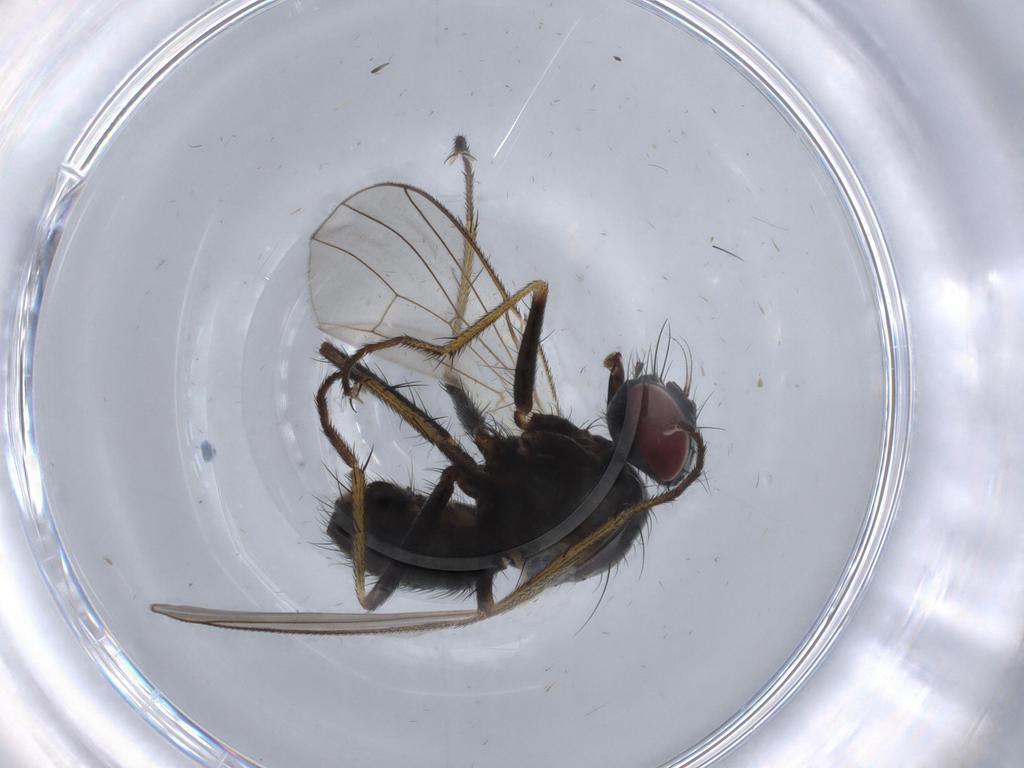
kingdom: Animalia
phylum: Arthropoda
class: Insecta
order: Diptera
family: Muscidae
